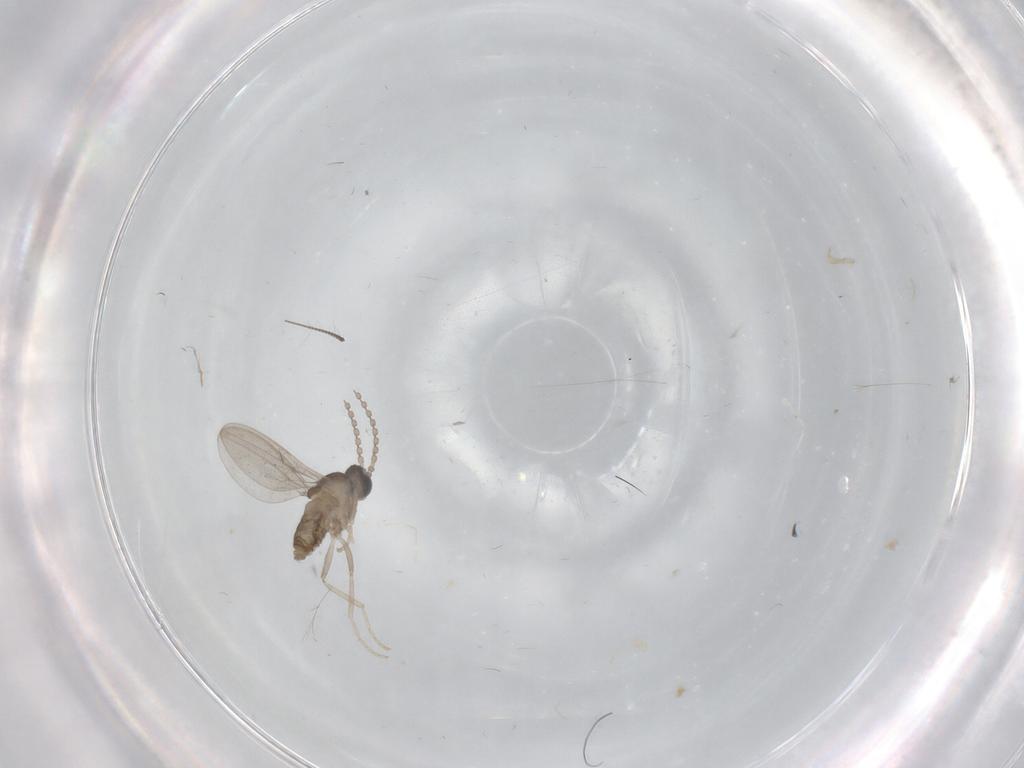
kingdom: Animalia
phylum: Arthropoda
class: Insecta
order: Diptera
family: Cecidomyiidae
